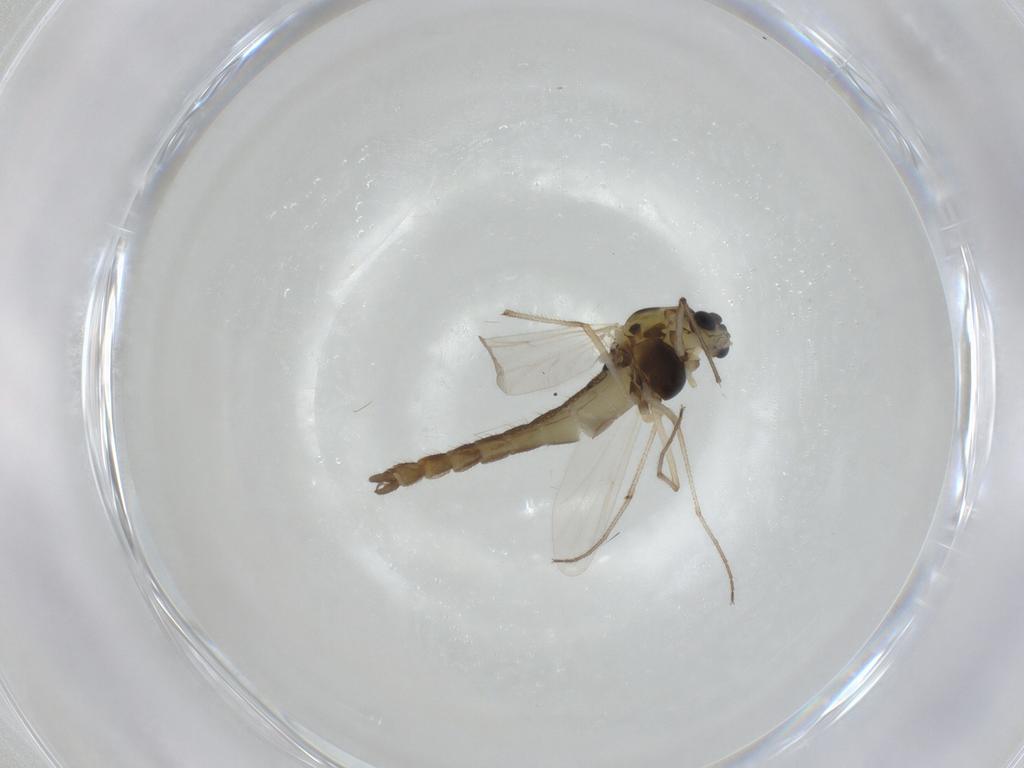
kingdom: Animalia
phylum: Arthropoda
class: Insecta
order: Diptera
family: Chironomidae
